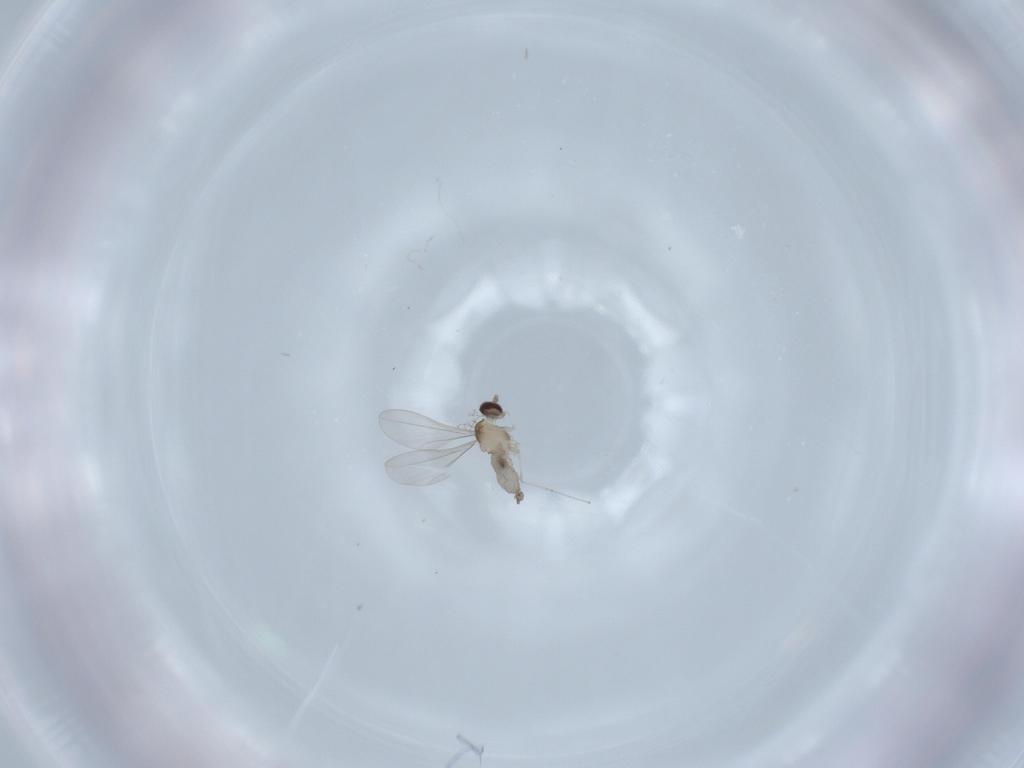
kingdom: Animalia
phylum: Arthropoda
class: Insecta
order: Diptera
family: Cecidomyiidae
